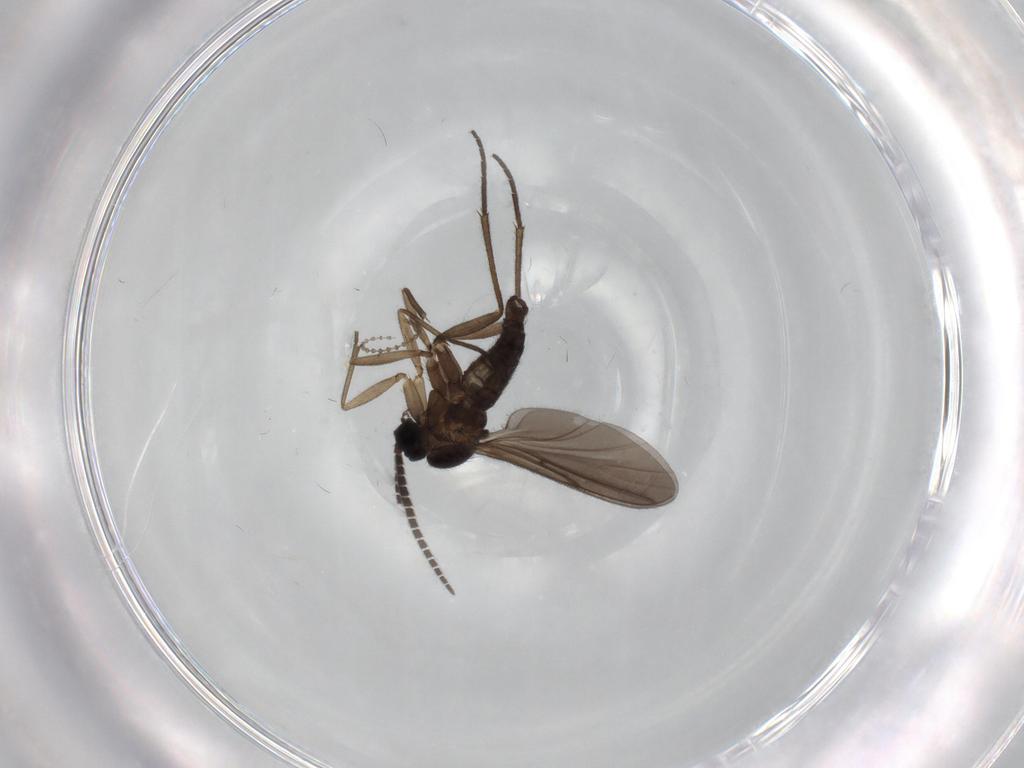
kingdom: Animalia
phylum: Arthropoda
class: Insecta
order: Diptera
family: Sciaridae
